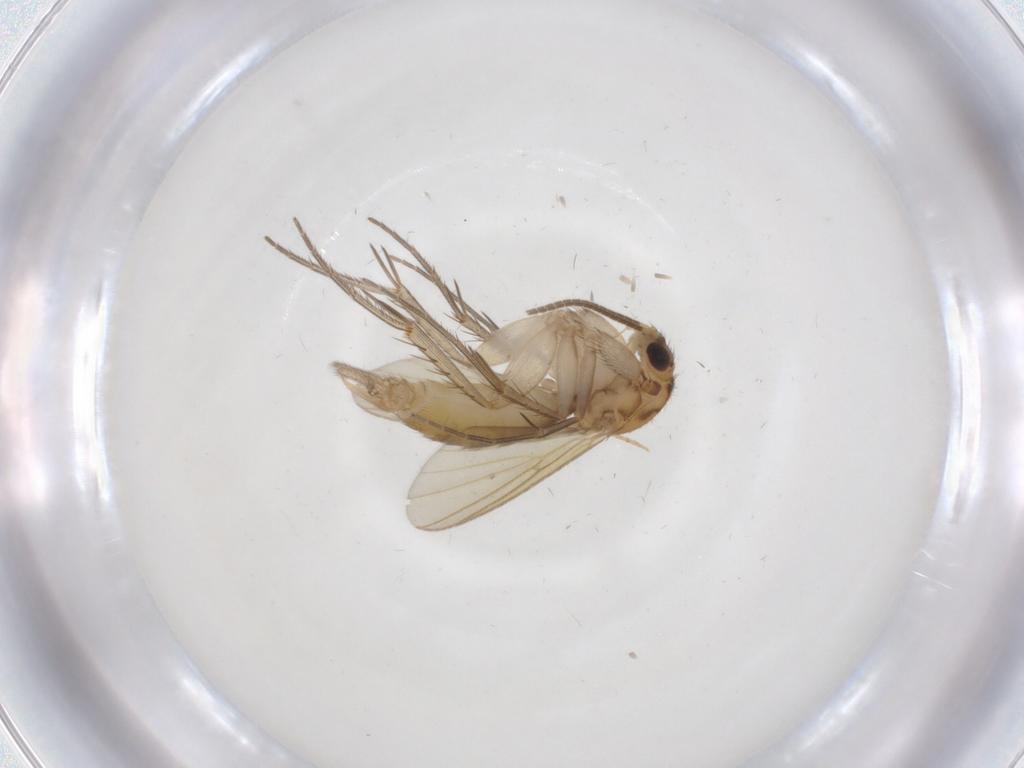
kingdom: Animalia
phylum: Arthropoda
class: Insecta
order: Diptera
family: Mycetophilidae
